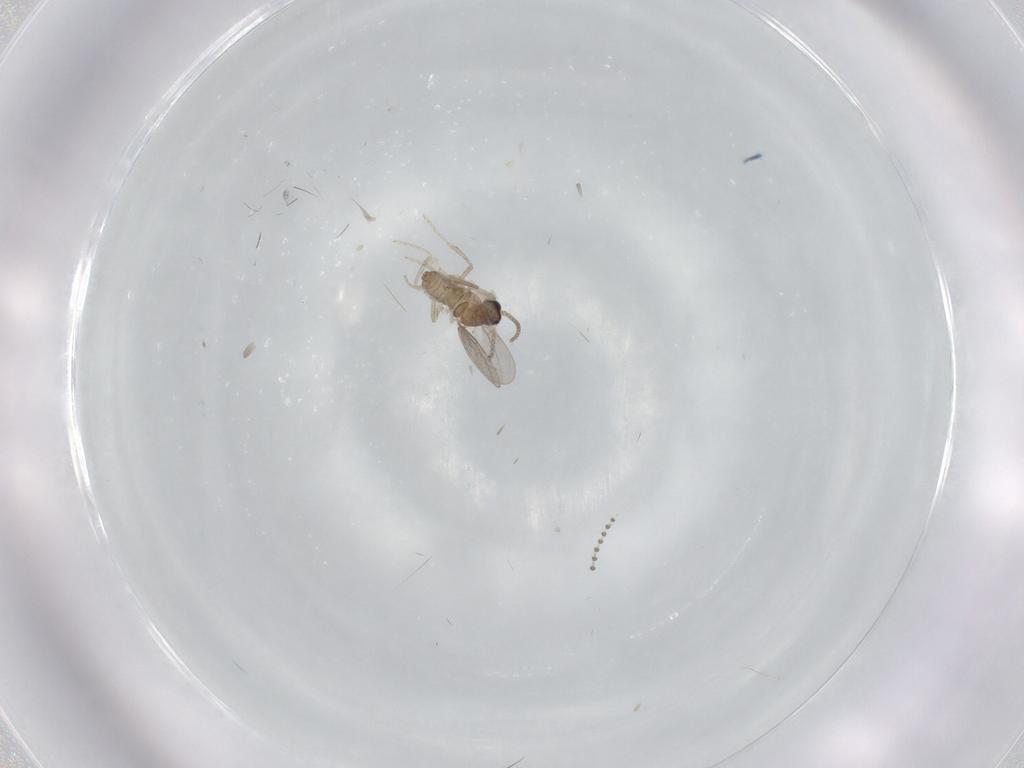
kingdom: Animalia
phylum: Arthropoda
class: Insecta
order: Diptera
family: Cecidomyiidae
